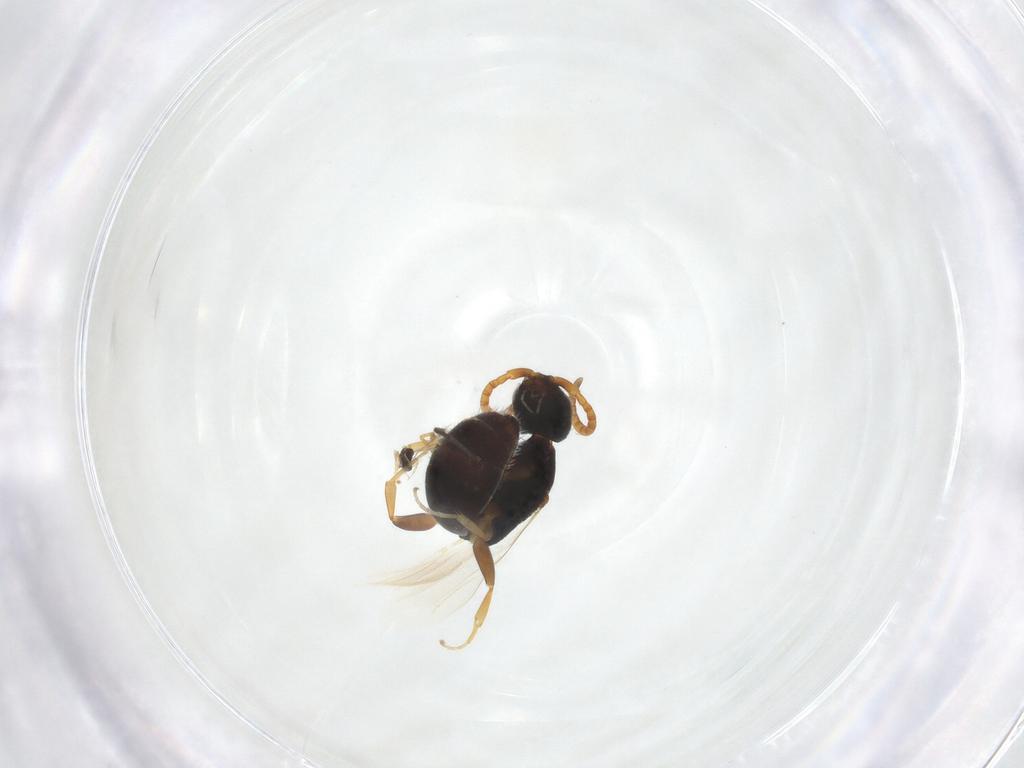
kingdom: Animalia
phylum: Arthropoda
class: Insecta
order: Hymenoptera
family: Bethylidae
